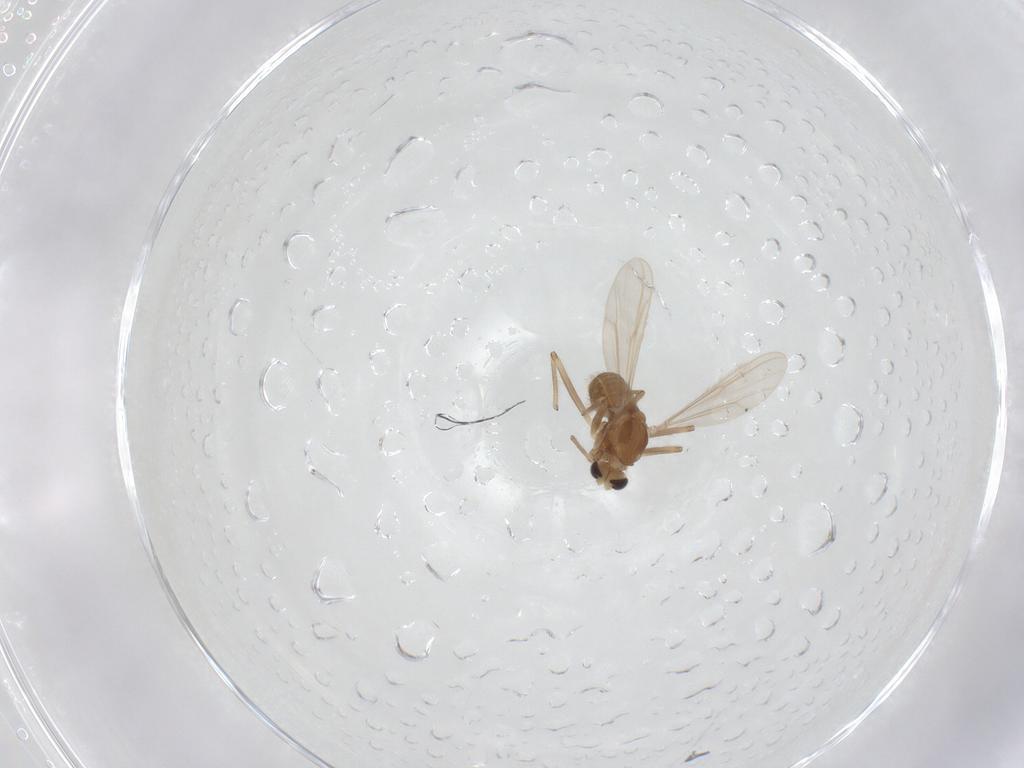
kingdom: Animalia
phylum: Arthropoda
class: Insecta
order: Diptera
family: Chironomidae
